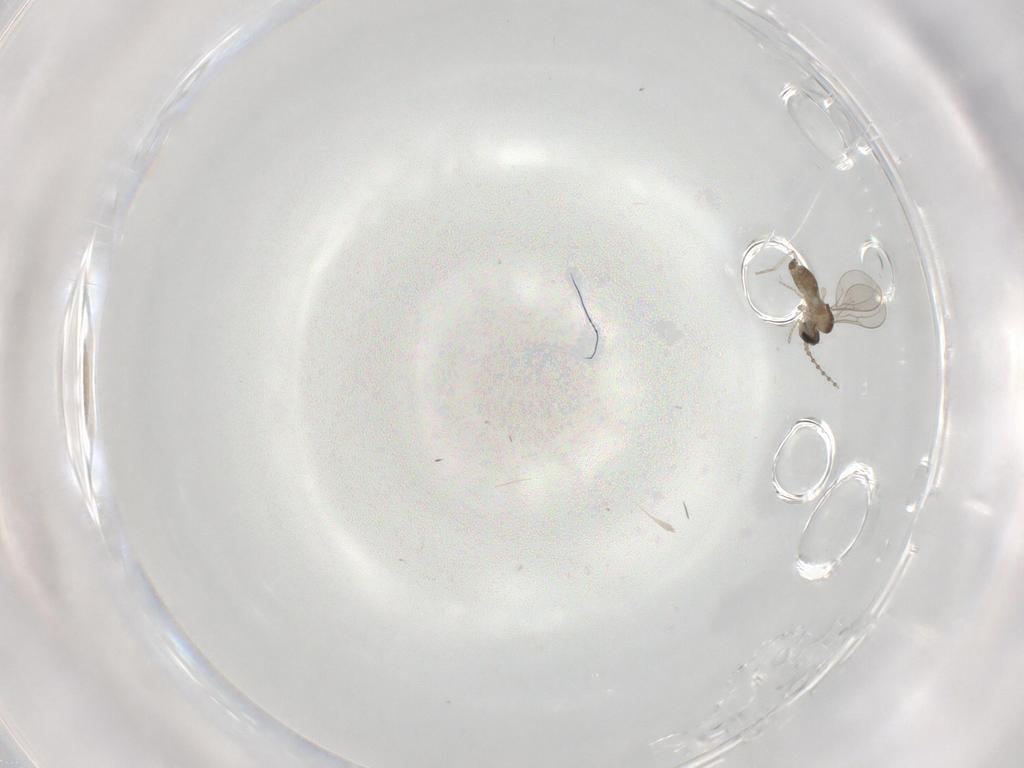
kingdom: Animalia
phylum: Arthropoda
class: Insecta
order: Diptera
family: Cecidomyiidae
